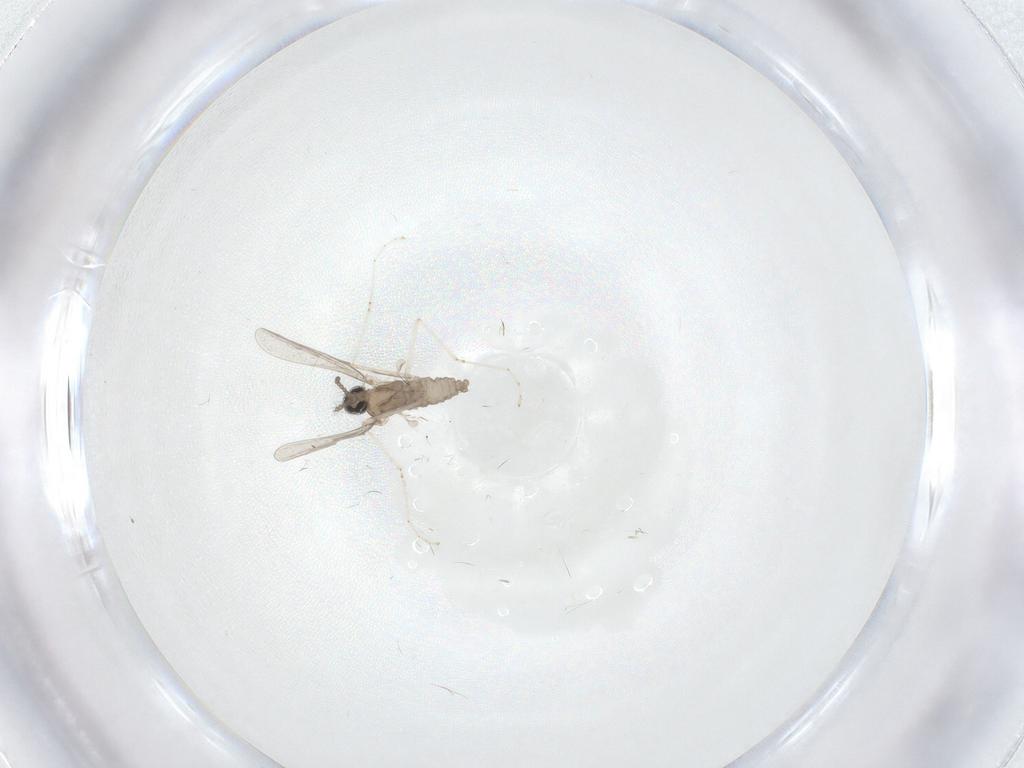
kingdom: Animalia
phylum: Arthropoda
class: Insecta
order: Diptera
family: Cecidomyiidae
